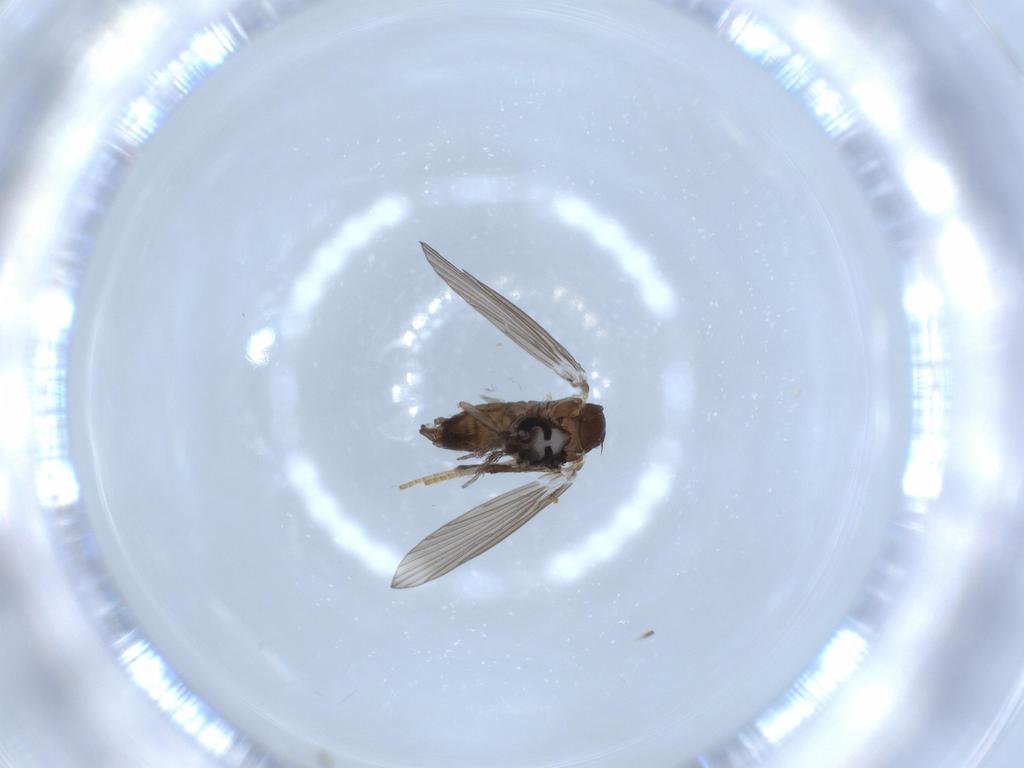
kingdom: Animalia
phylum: Arthropoda
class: Insecta
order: Diptera
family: Psychodidae
